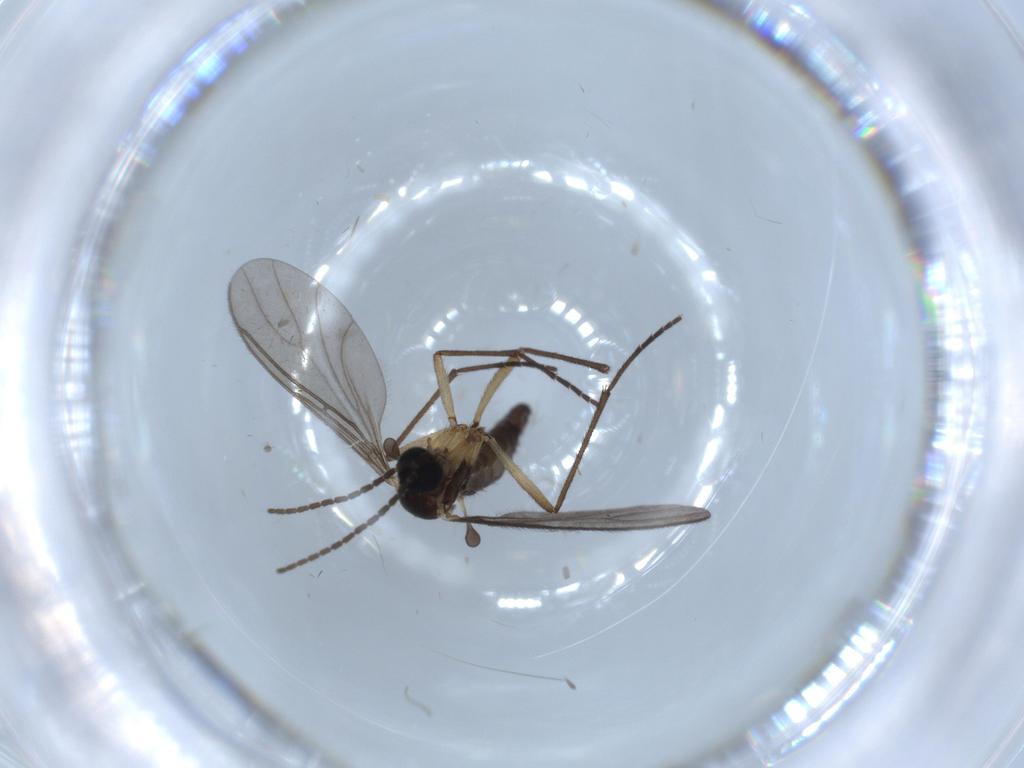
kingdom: Animalia
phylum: Arthropoda
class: Insecta
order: Diptera
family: Sciaridae
